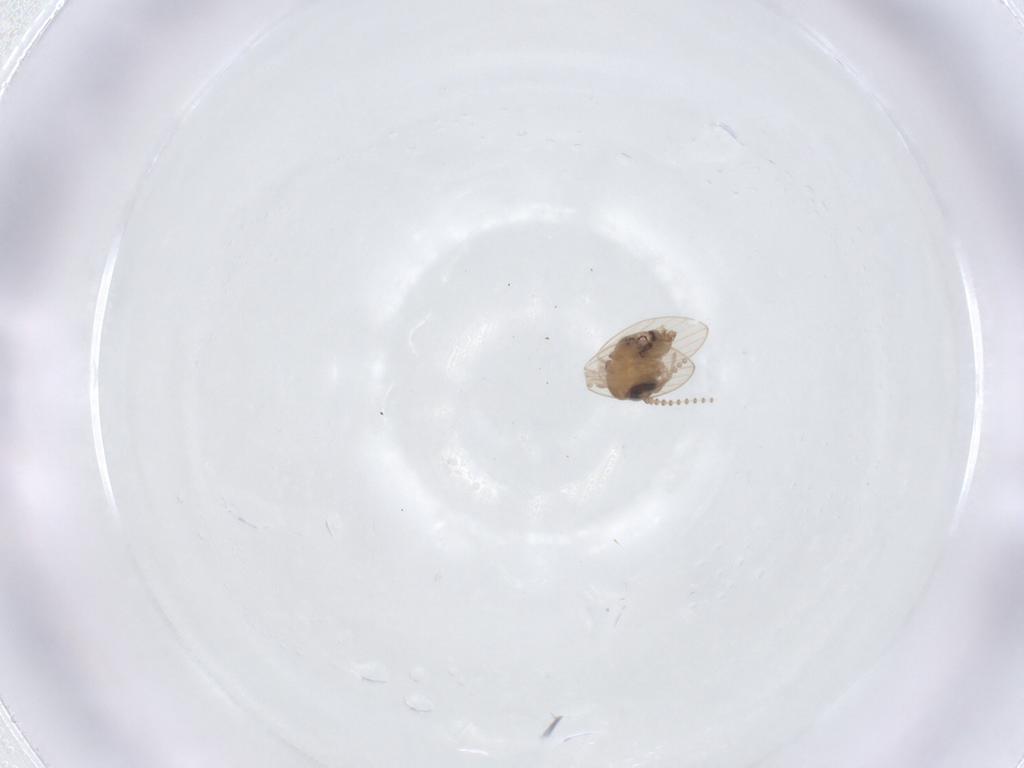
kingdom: Animalia
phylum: Arthropoda
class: Insecta
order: Diptera
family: Psychodidae
